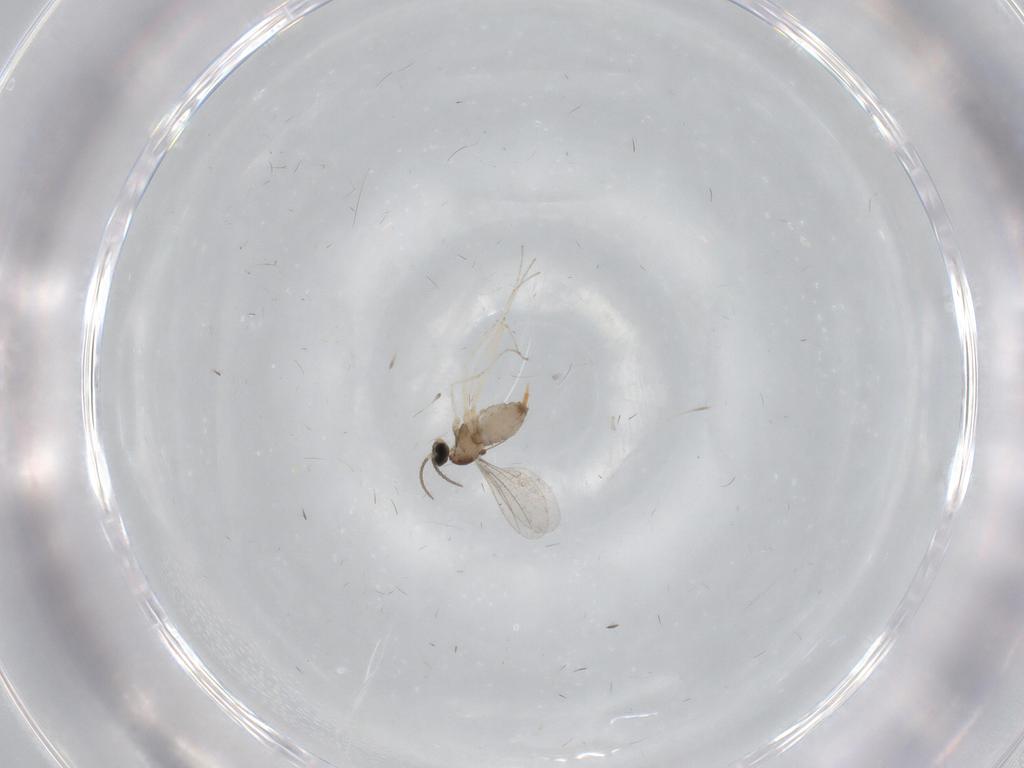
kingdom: Animalia
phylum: Arthropoda
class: Insecta
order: Diptera
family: Cecidomyiidae
